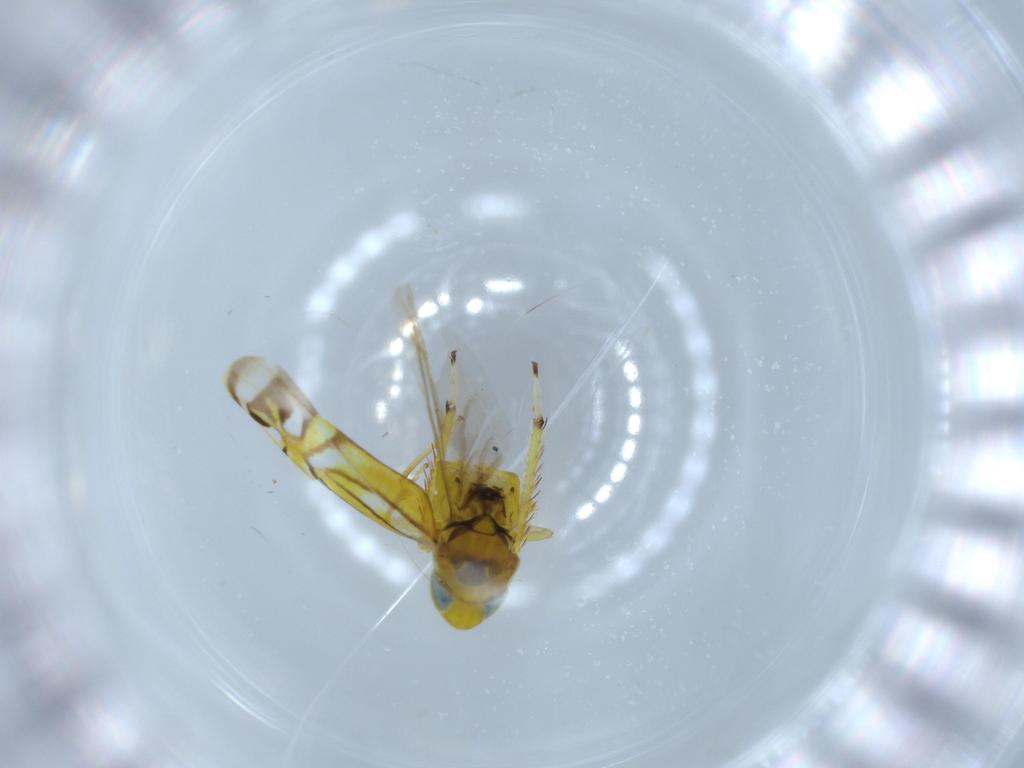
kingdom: Animalia
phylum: Arthropoda
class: Insecta
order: Hemiptera
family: Cicadellidae
